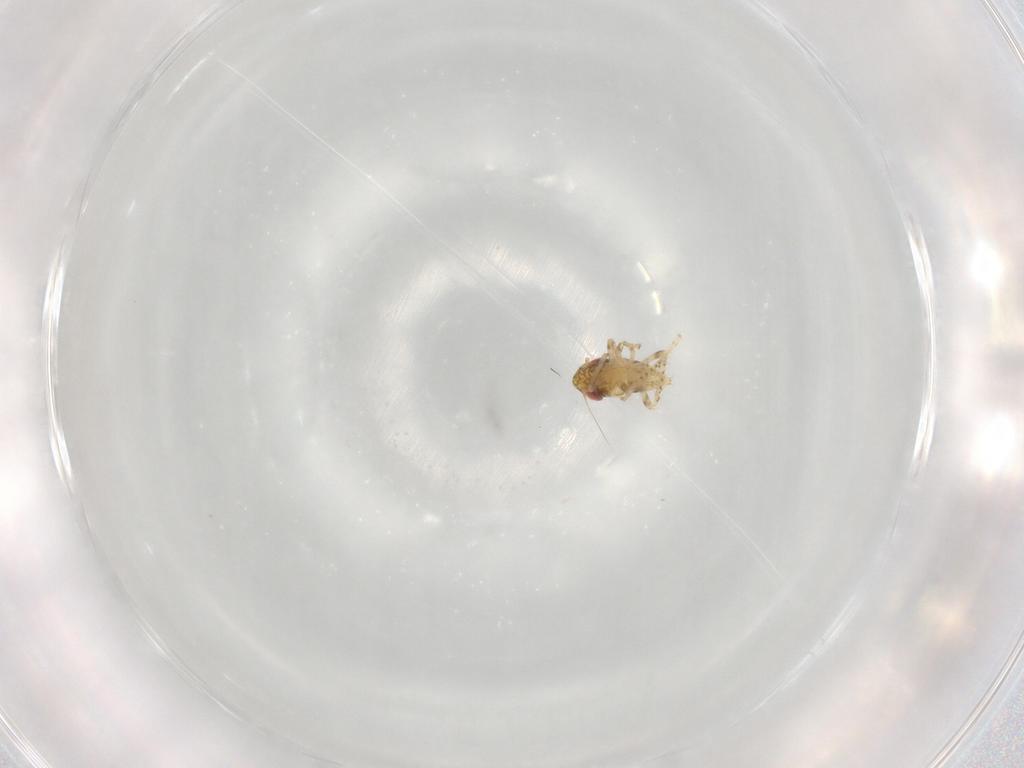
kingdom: Animalia
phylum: Arthropoda
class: Insecta
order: Hemiptera
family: Cicadellidae
